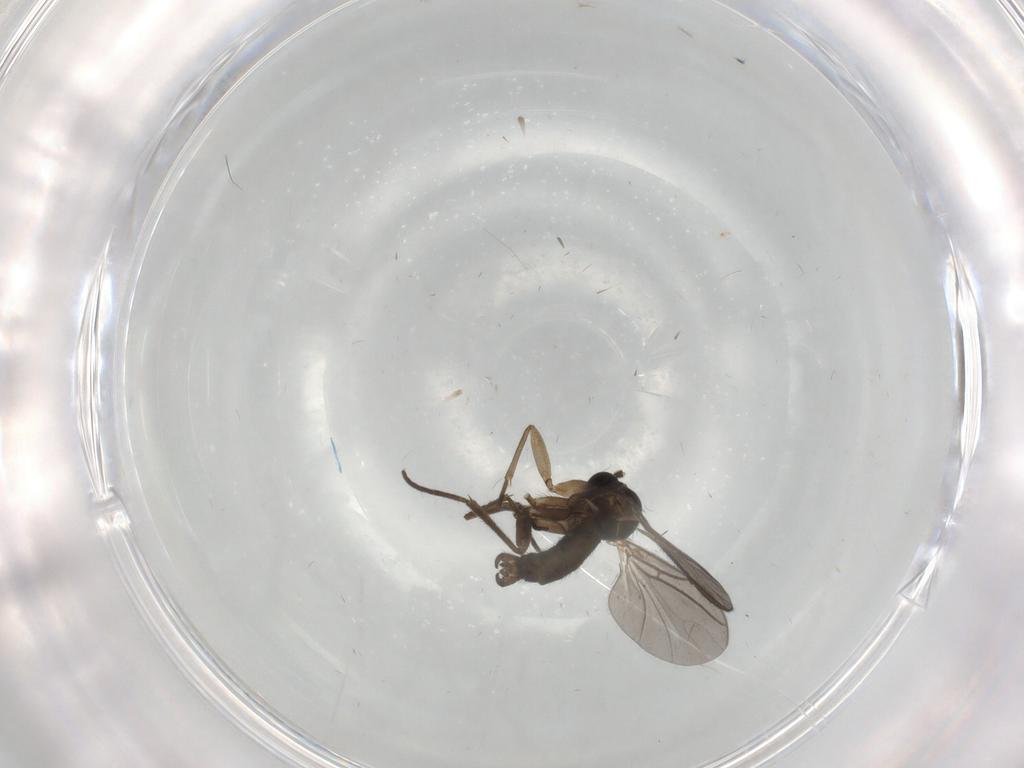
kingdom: Animalia
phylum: Arthropoda
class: Insecta
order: Diptera
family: Sciaridae
